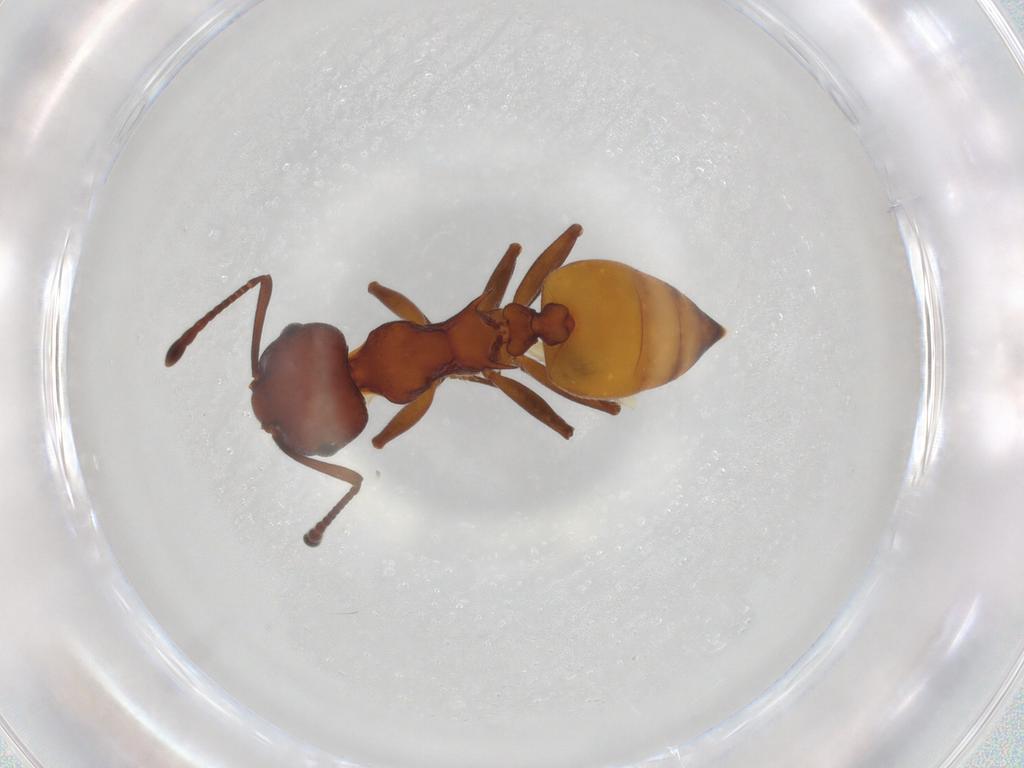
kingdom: Animalia
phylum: Arthropoda
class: Insecta
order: Hymenoptera
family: Formicidae
